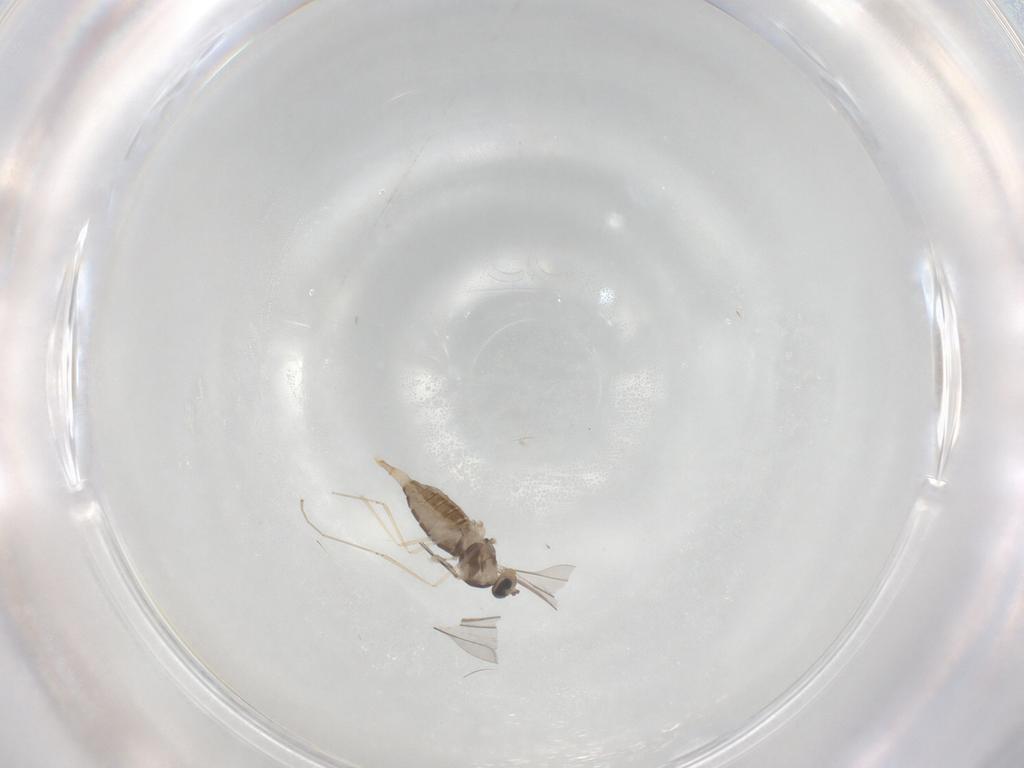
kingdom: Animalia
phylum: Arthropoda
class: Insecta
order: Diptera
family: Cecidomyiidae
